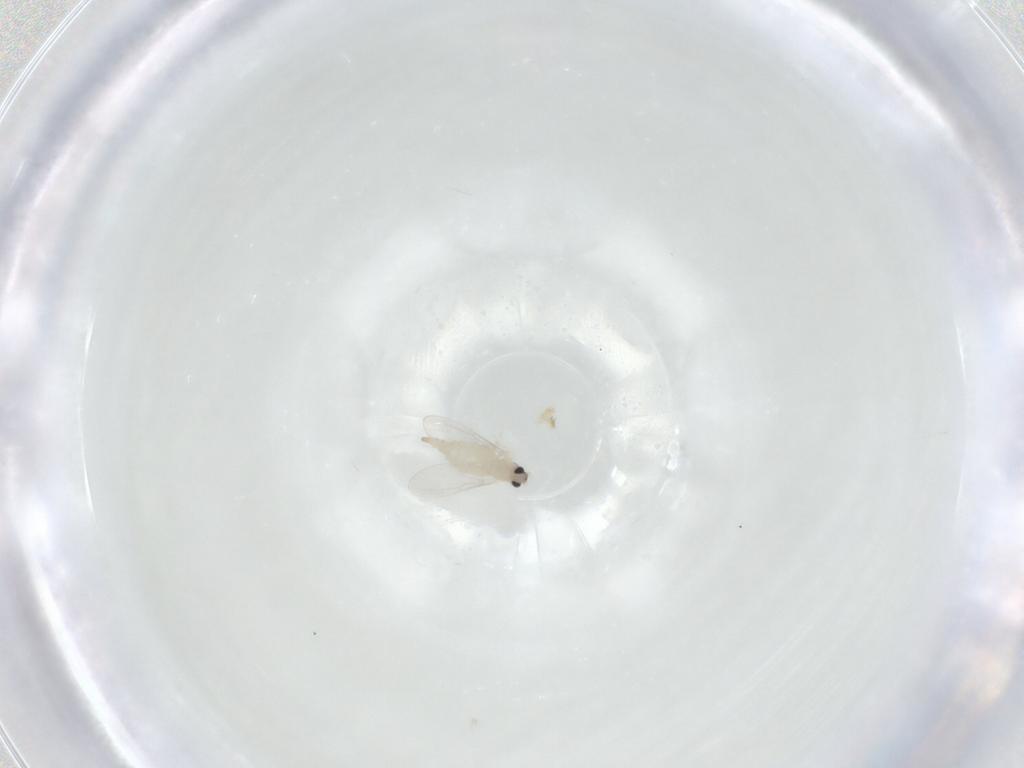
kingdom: Animalia
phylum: Arthropoda
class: Insecta
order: Diptera
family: Cecidomyiidae
